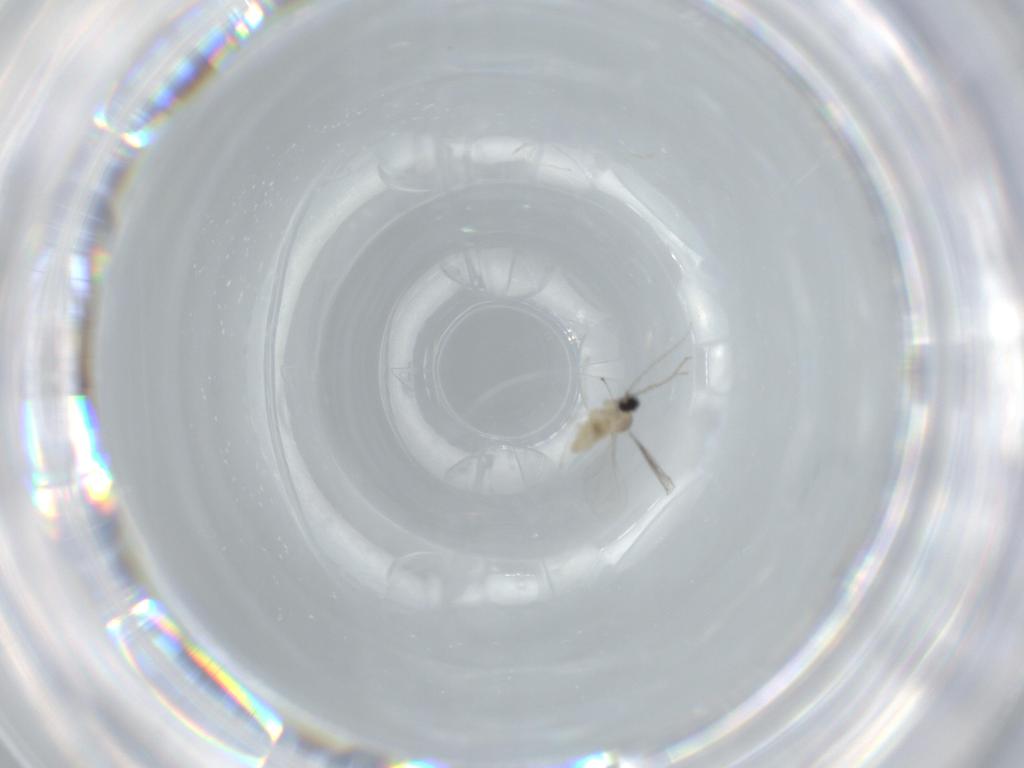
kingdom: Animalia
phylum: Arthropoda
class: Insecta
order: Diptera
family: Cecidomyiidae
